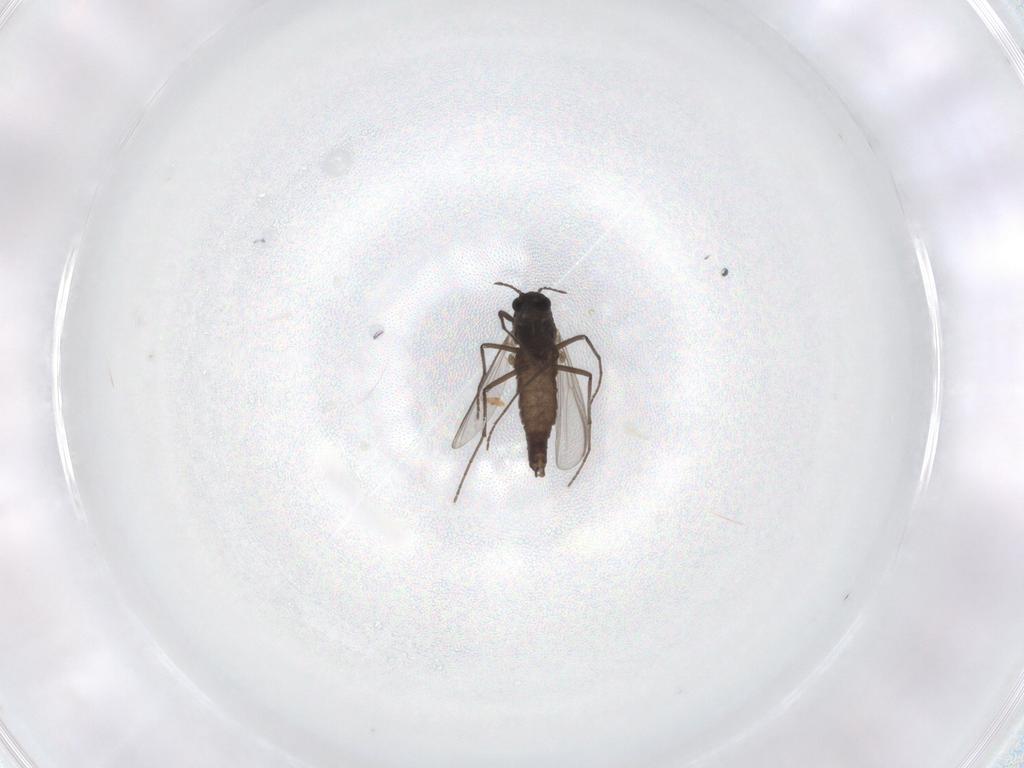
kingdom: Animalia
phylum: Arthropoda
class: Insecta
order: Diptera
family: Chironomidae
